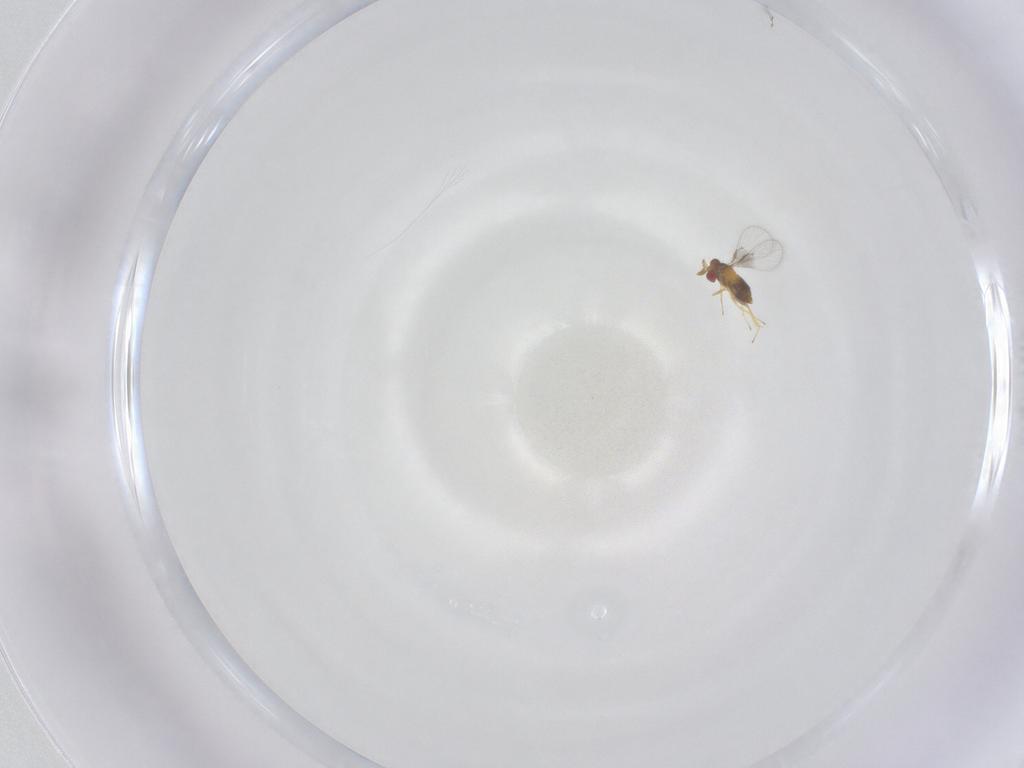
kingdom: Animalia
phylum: Arthropoda
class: Insecta
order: Hymenoptera
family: Trichogrammatidae
